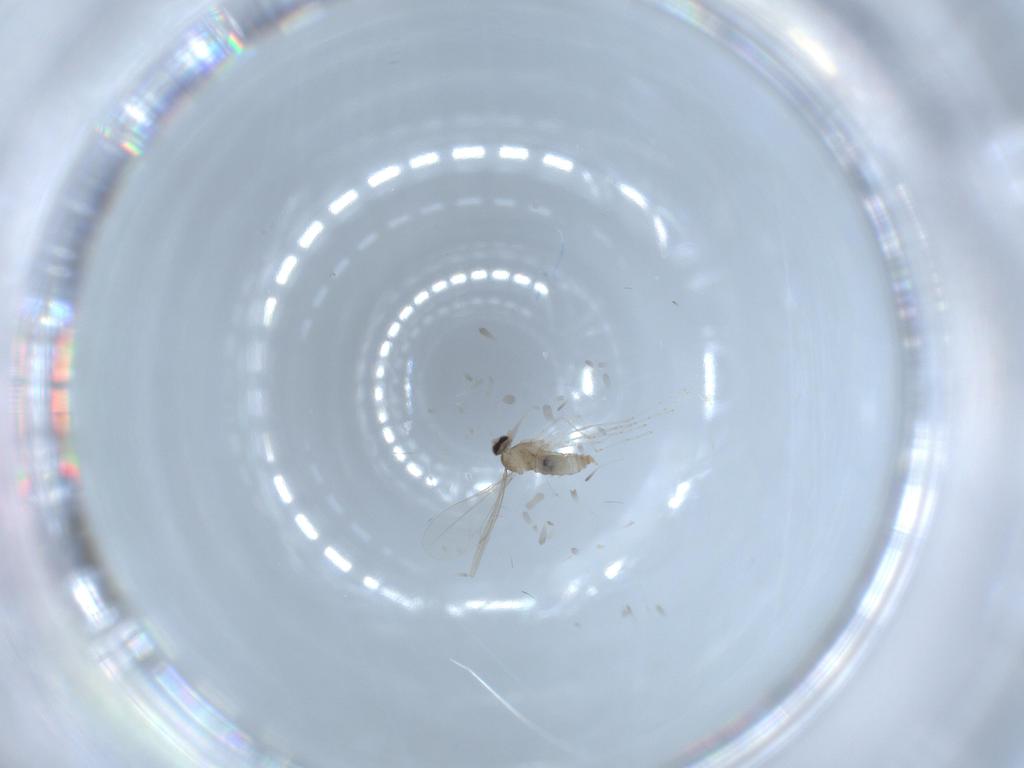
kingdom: Animalia
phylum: Arthropoda
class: Insecta
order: Diptera
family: Cecidomyiidae
